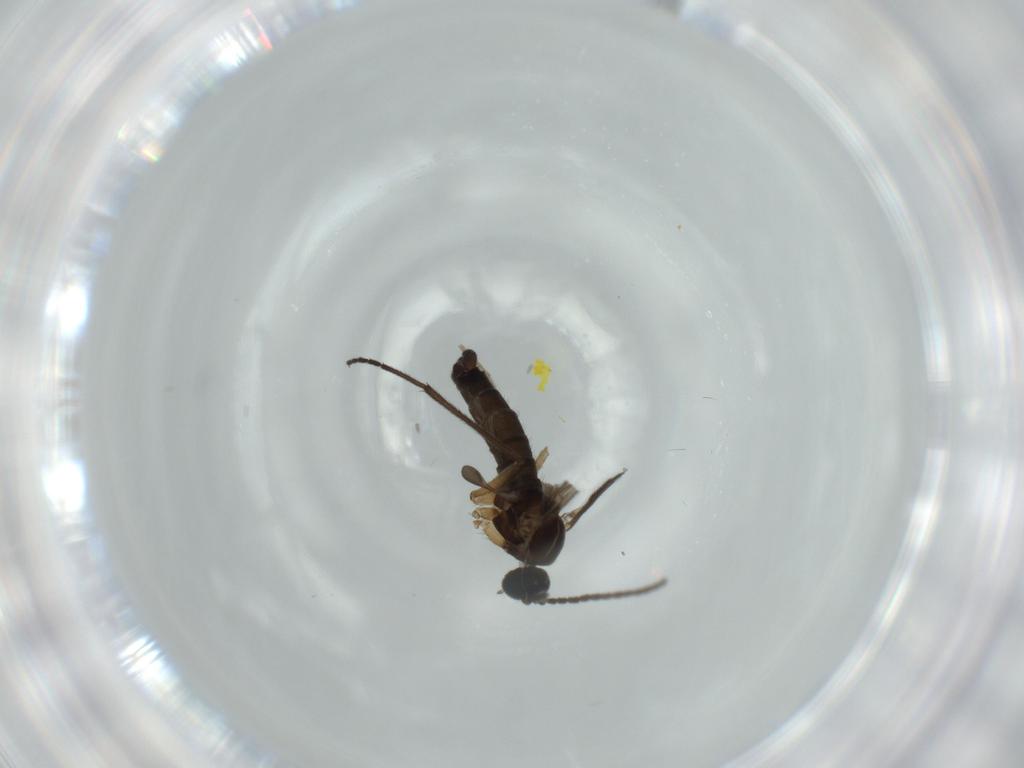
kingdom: Animalia
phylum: Arthropoda
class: Insecta
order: Diptera
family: Sciaridae
